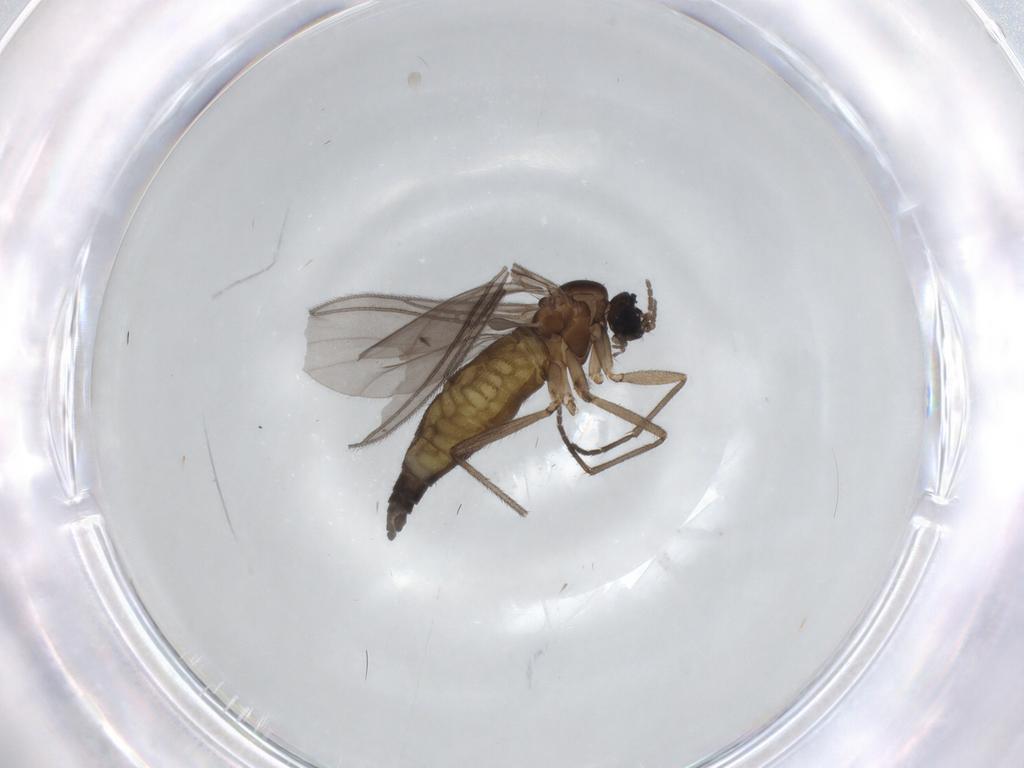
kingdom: Animalia
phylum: Arthropoda
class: Insecta
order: Diptera
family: Sciaridae
